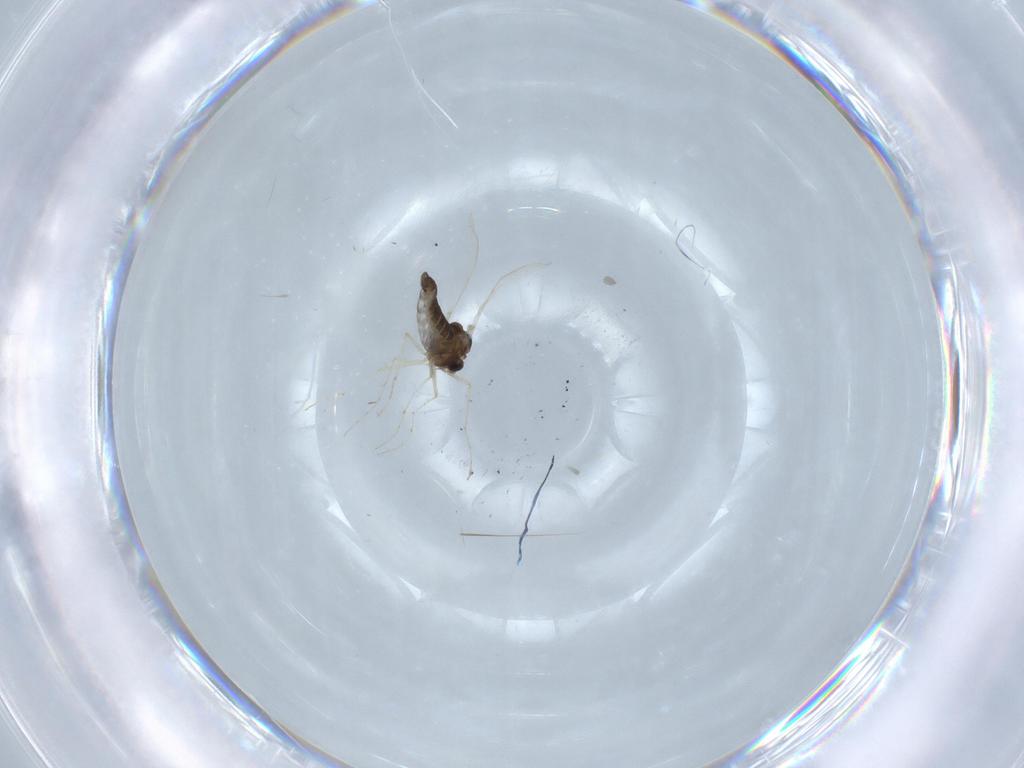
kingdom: Animalia
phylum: Arthropoda
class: Insecta
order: Diptera
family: Chironomidae
